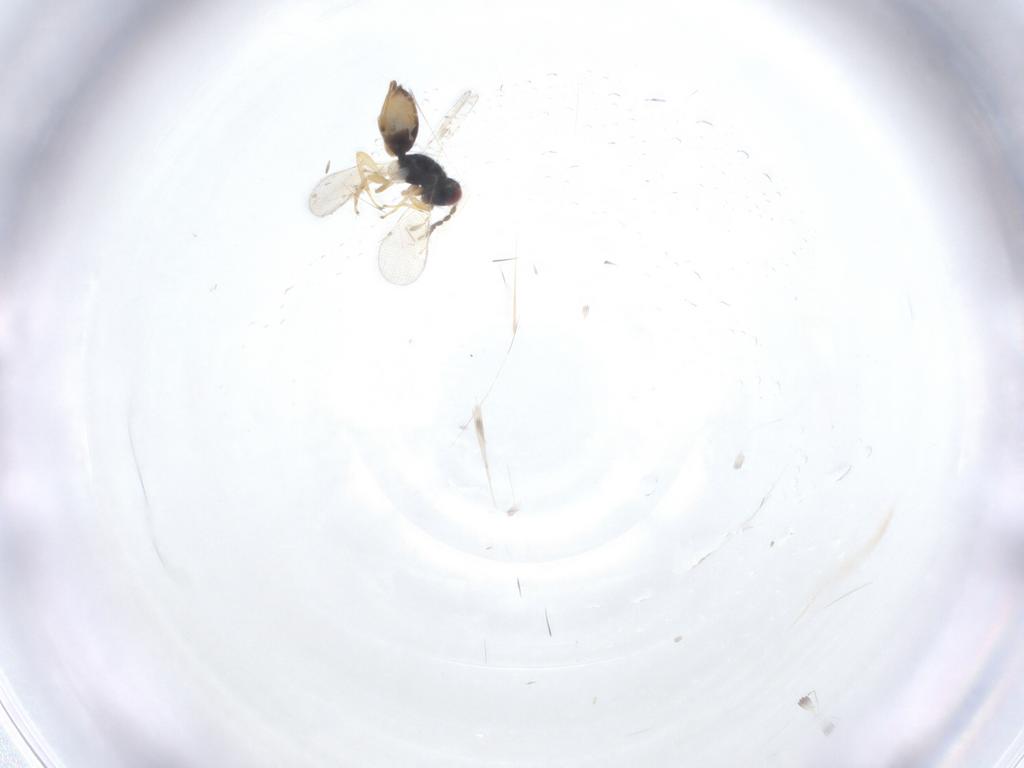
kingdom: Animalia
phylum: Arthropoda
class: Insecta
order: Hymenoptera
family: Eulophidae
